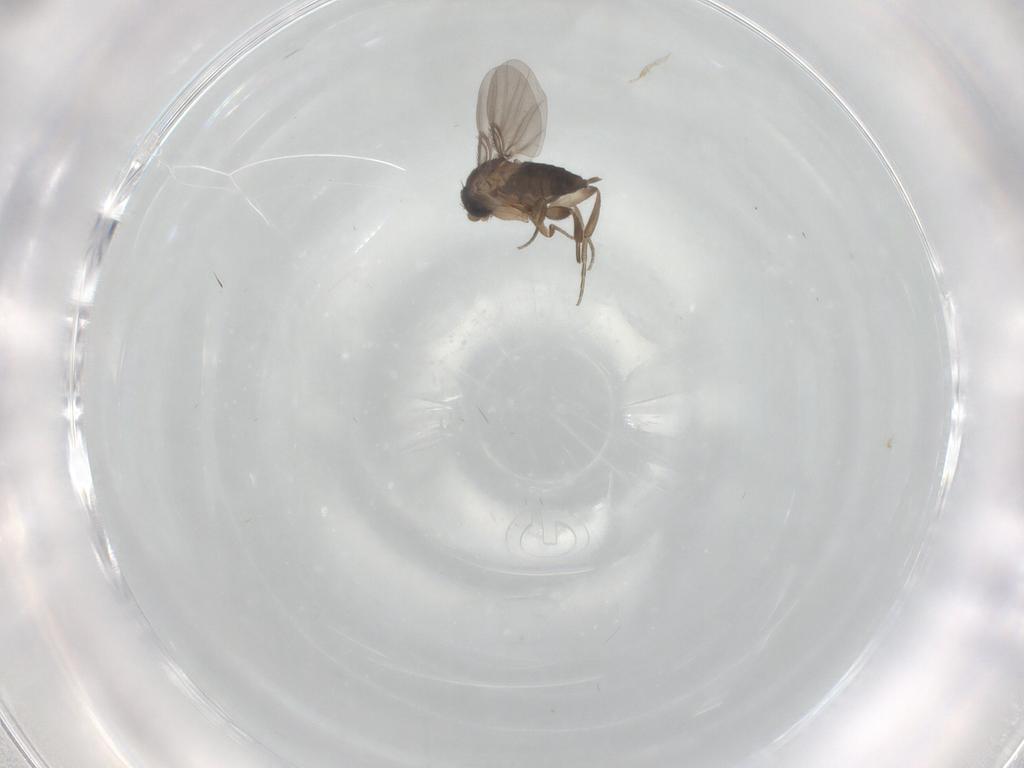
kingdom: Animalia
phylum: Arthropoda
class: Insecta
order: Diptera
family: Phoridae
